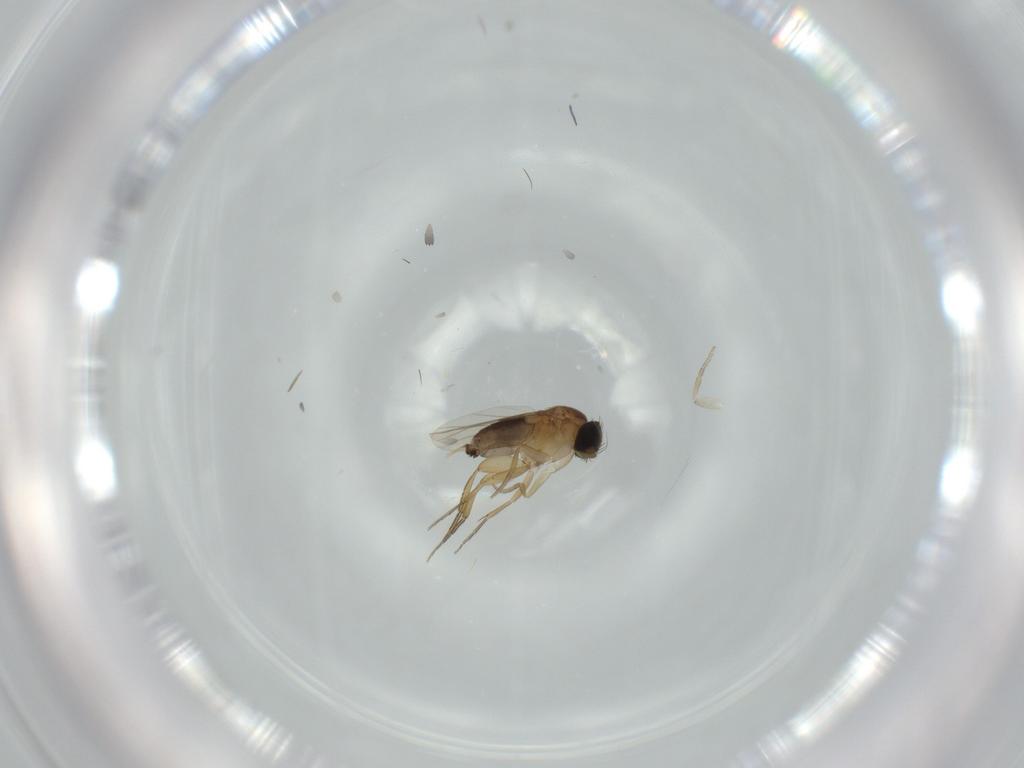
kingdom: Animalia
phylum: Arthropoda
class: Insecta
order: Diptera
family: Phoridae
